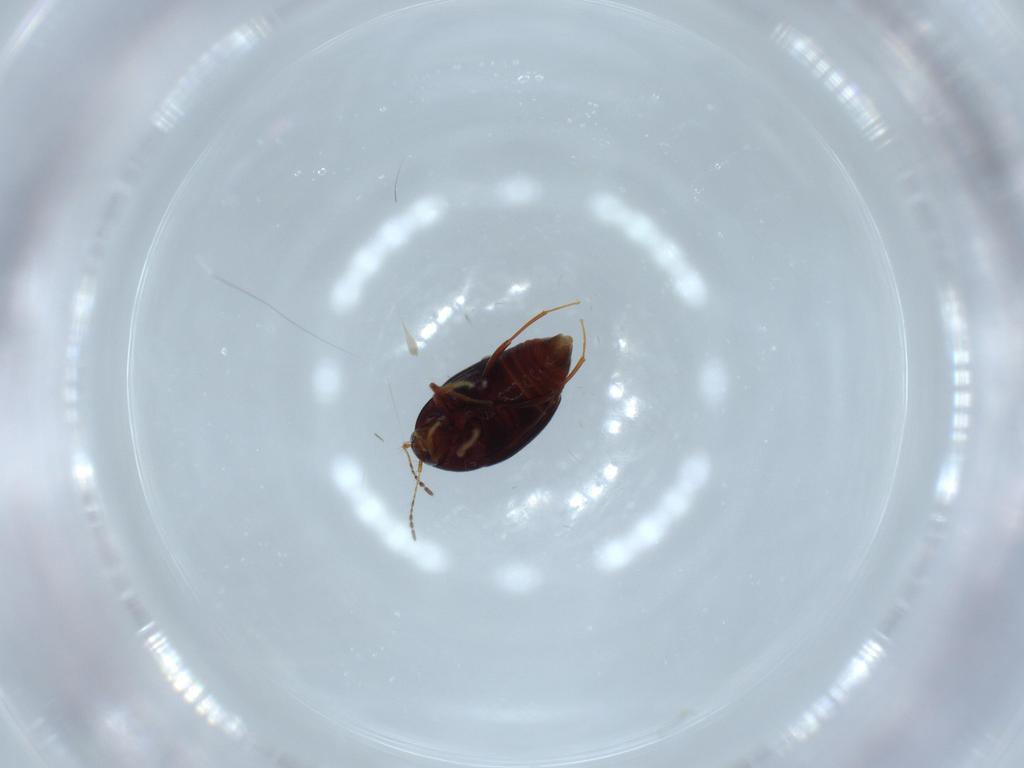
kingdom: Animalia
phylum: Arthropoda
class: Insecta
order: Coleoptera
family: Staphylinidae
